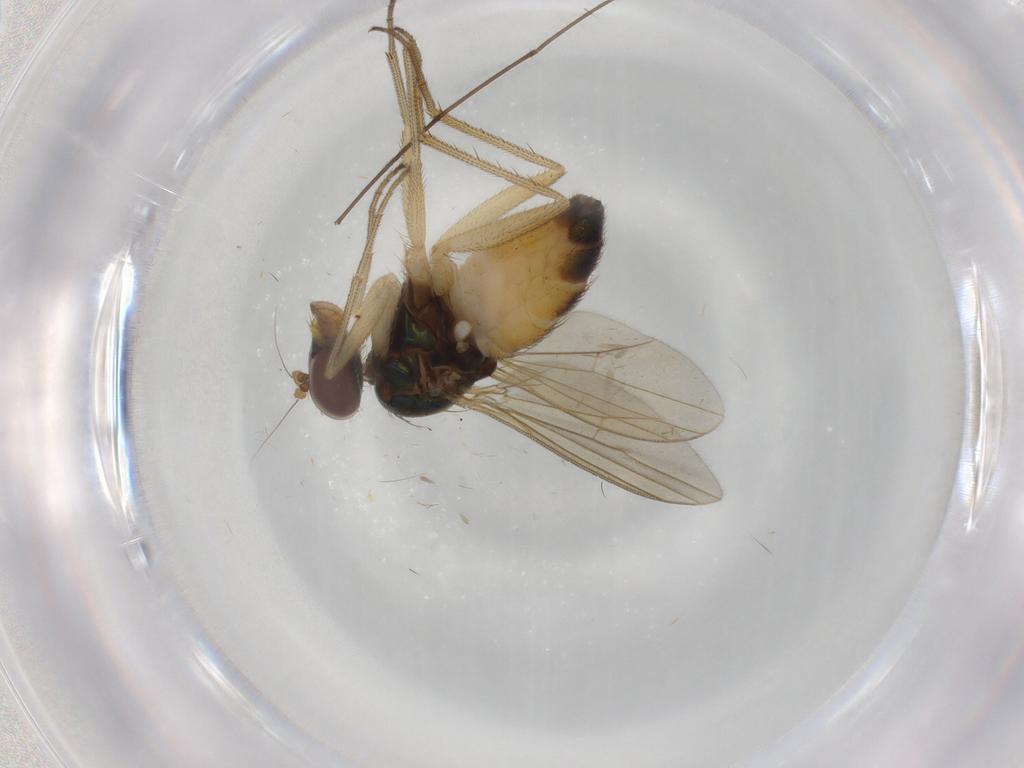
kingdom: Animalia
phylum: Arthropoda
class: Insecta
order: Diptera
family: Dolichopodidae
